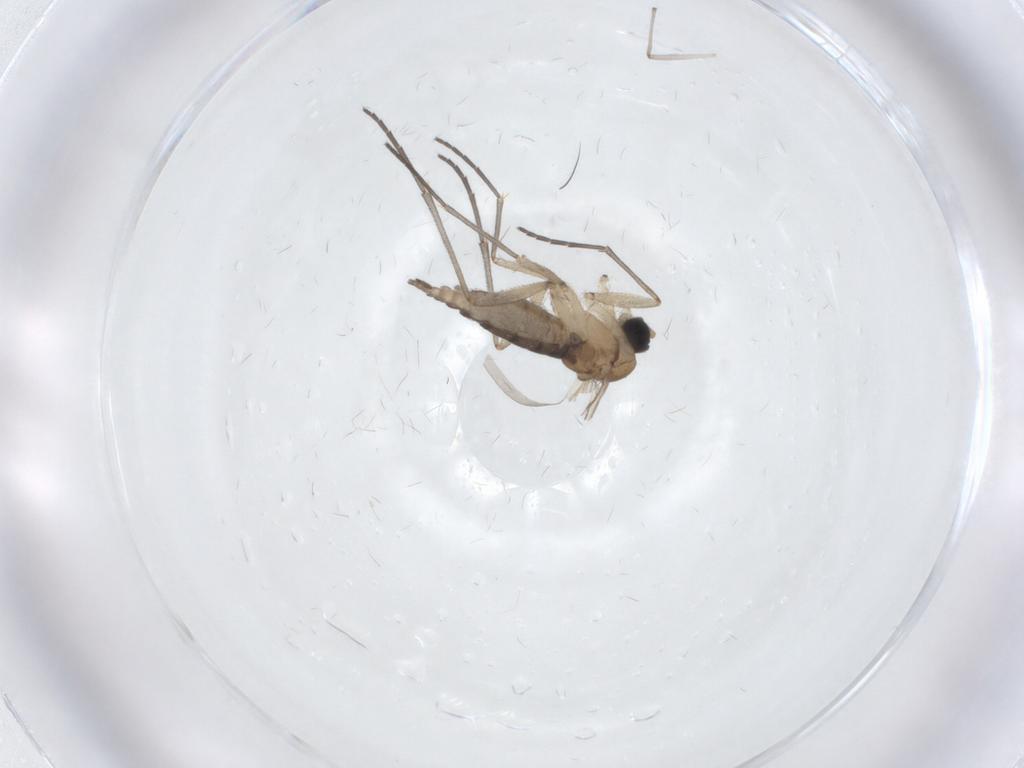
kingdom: Animalia
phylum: Arthropoda
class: Insecta
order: Diptera
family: Sciaridae
